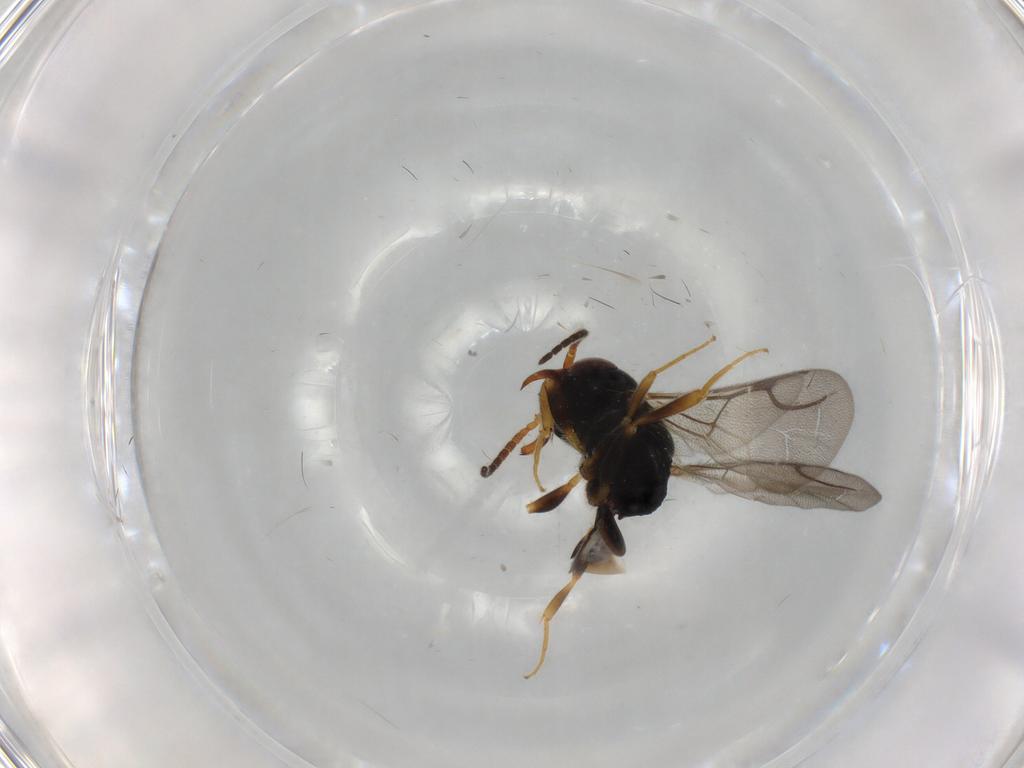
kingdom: Animalia
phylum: Arthropoda
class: Insecta
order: Hymenoptera
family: Bethylidae
